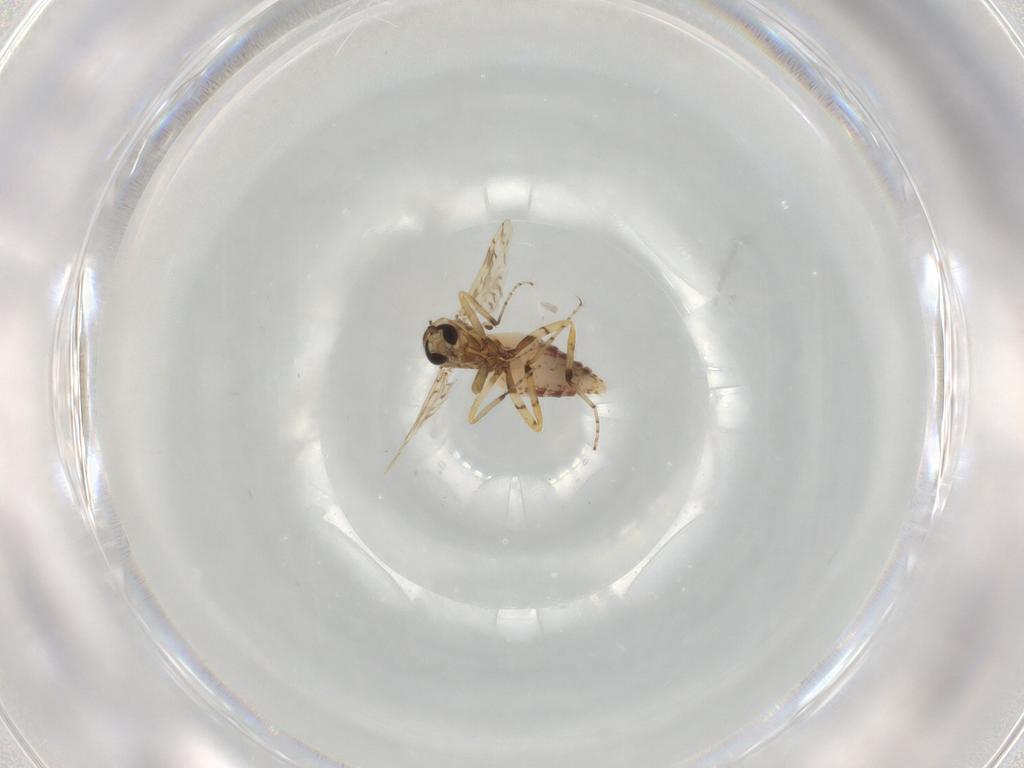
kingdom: Animalia
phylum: Arthropoda
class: Insecta
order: Diptera
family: Ceratopogonidae
